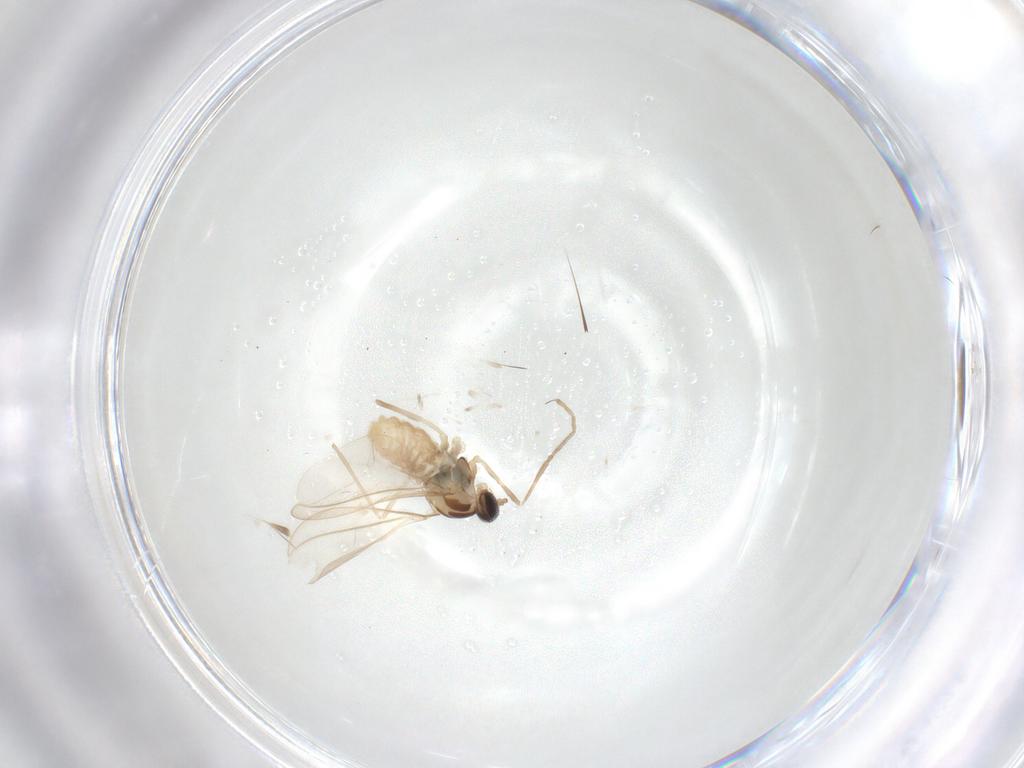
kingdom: Animalia
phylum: Arthropoda
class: Insecta
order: Diptera
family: Cecidomyiidae
